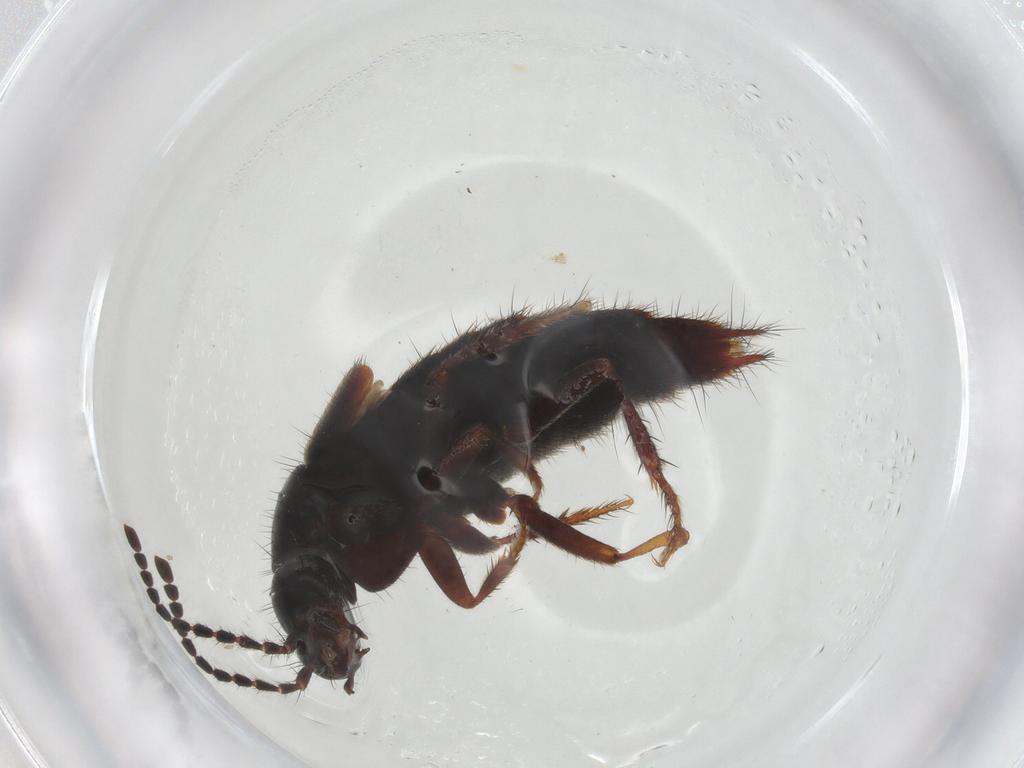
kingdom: Animalia
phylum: Arthropoda
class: Insecta
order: Coleoptera
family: Staphylinidae
